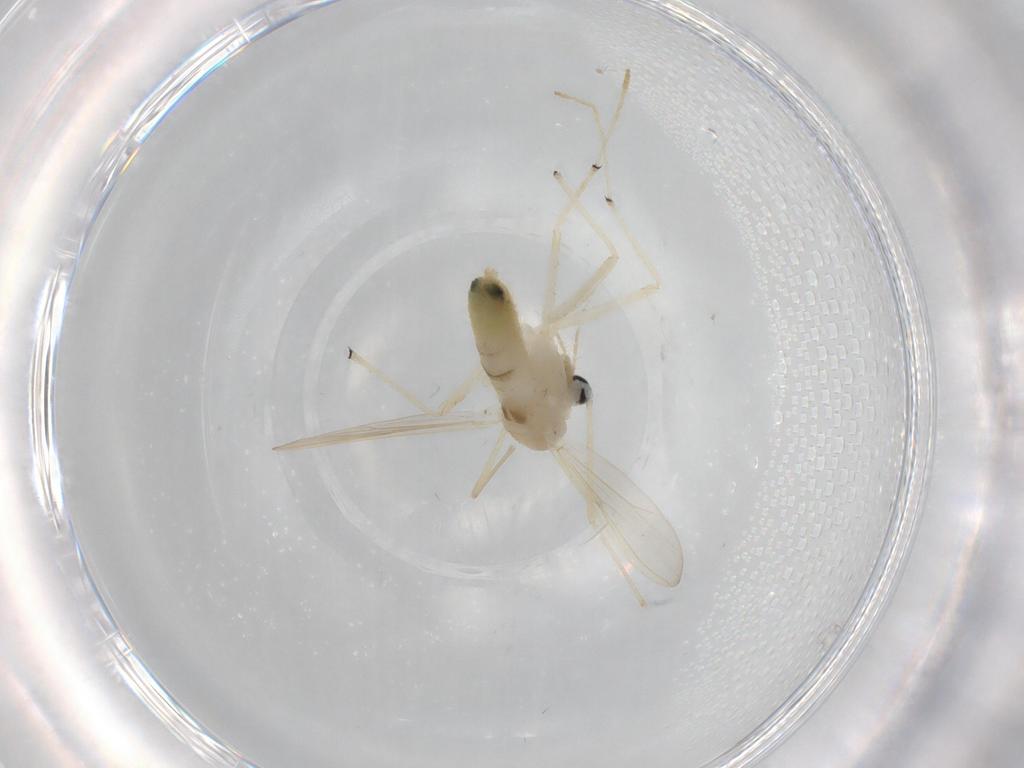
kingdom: Animalia
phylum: Arthropoda
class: Insecta
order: Diptera
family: Chironomidae
